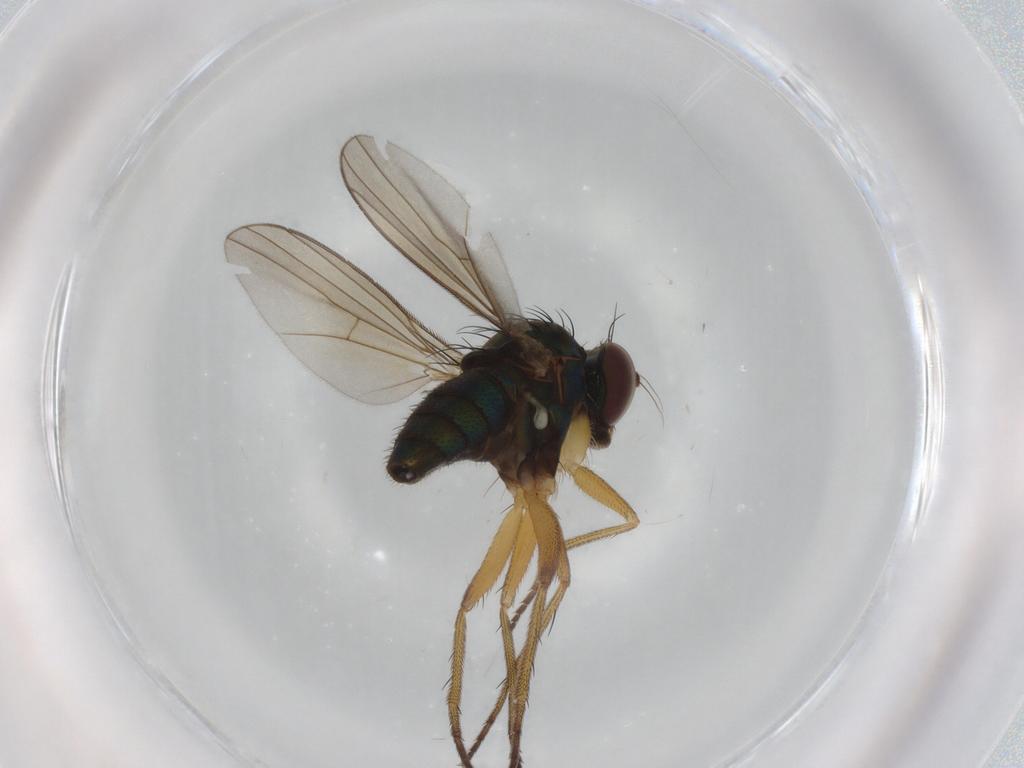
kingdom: Animalia
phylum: Arthropoda
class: Insecta
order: Diptera
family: Dolichopodidae
